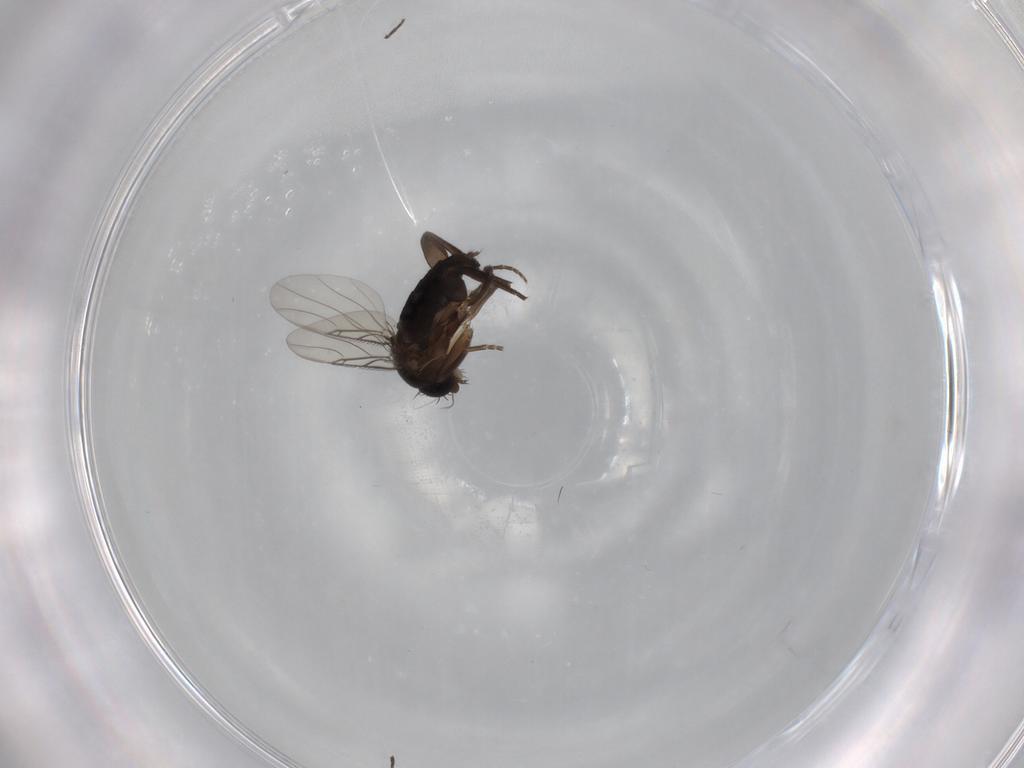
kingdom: Animalia
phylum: Arthropoda
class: Insecta
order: Diptera
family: Phoridae
